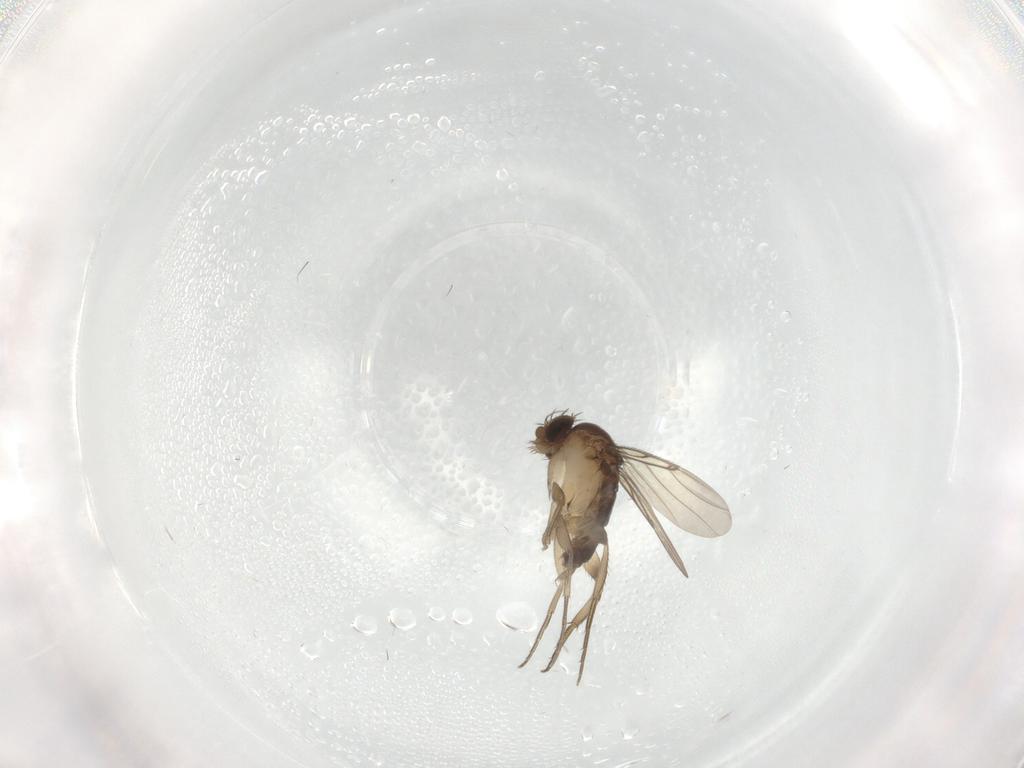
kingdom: Animalia
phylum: Arthropoda
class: Insecta
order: Diptera
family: Phoridae
